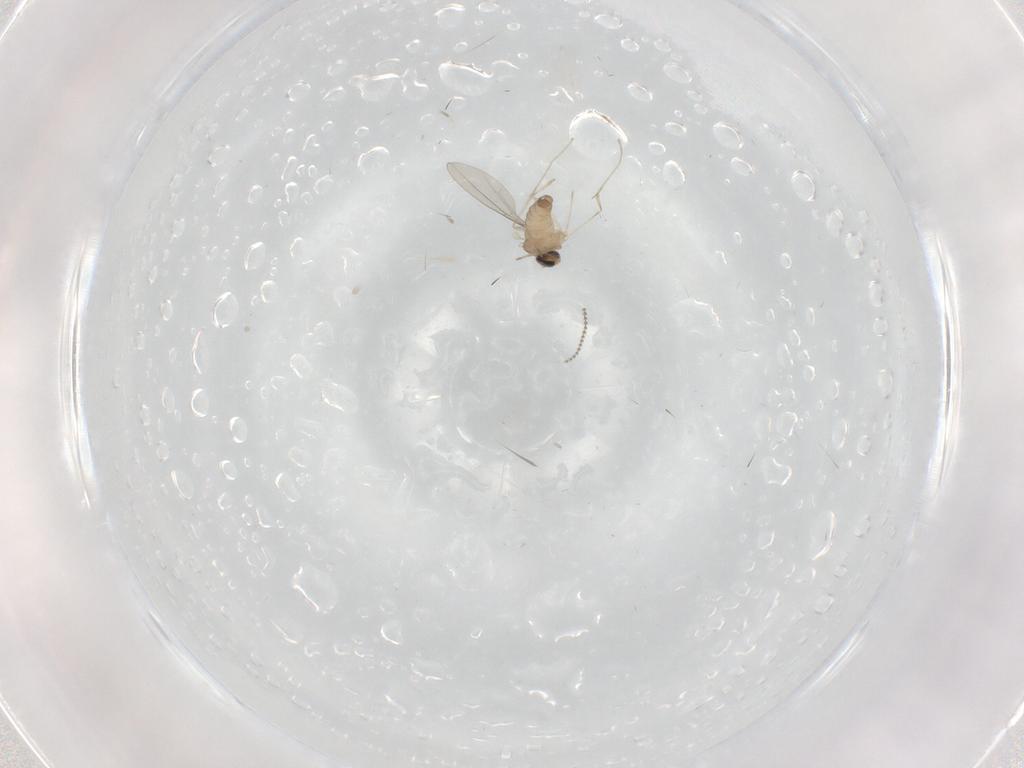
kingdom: Animalia
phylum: Arthropoda
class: Insecta
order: Diptera
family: Cecidomyiidae
